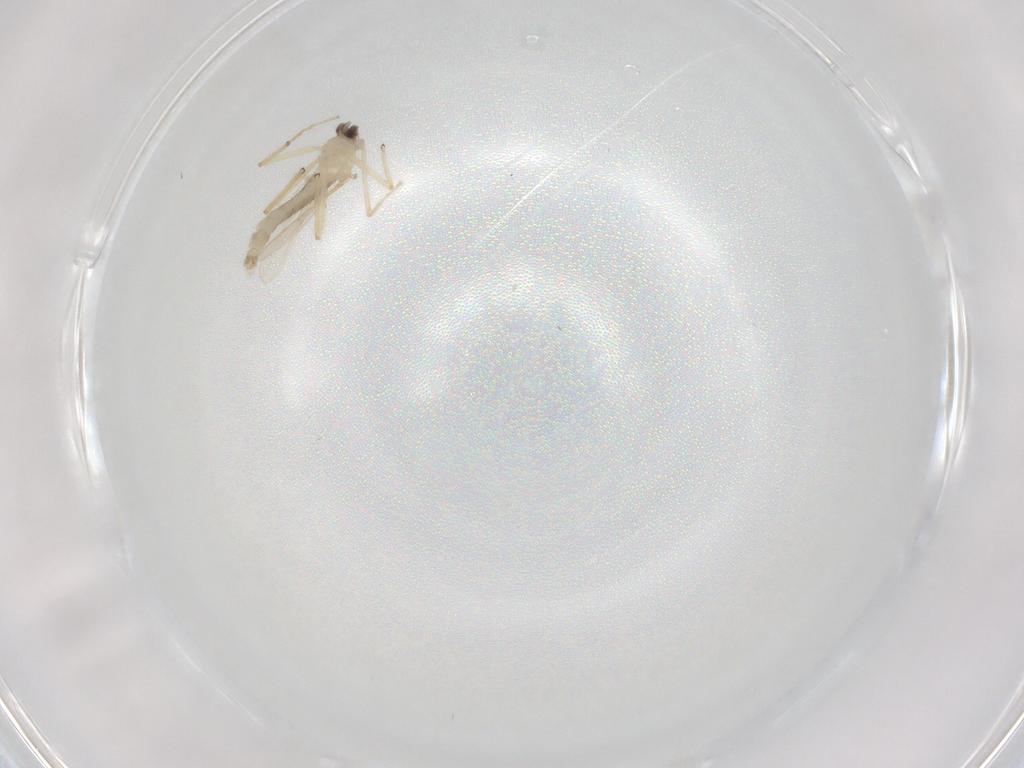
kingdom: Animalia
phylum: Arthropoda
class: Insecta
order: Diptera
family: Chironomidae
